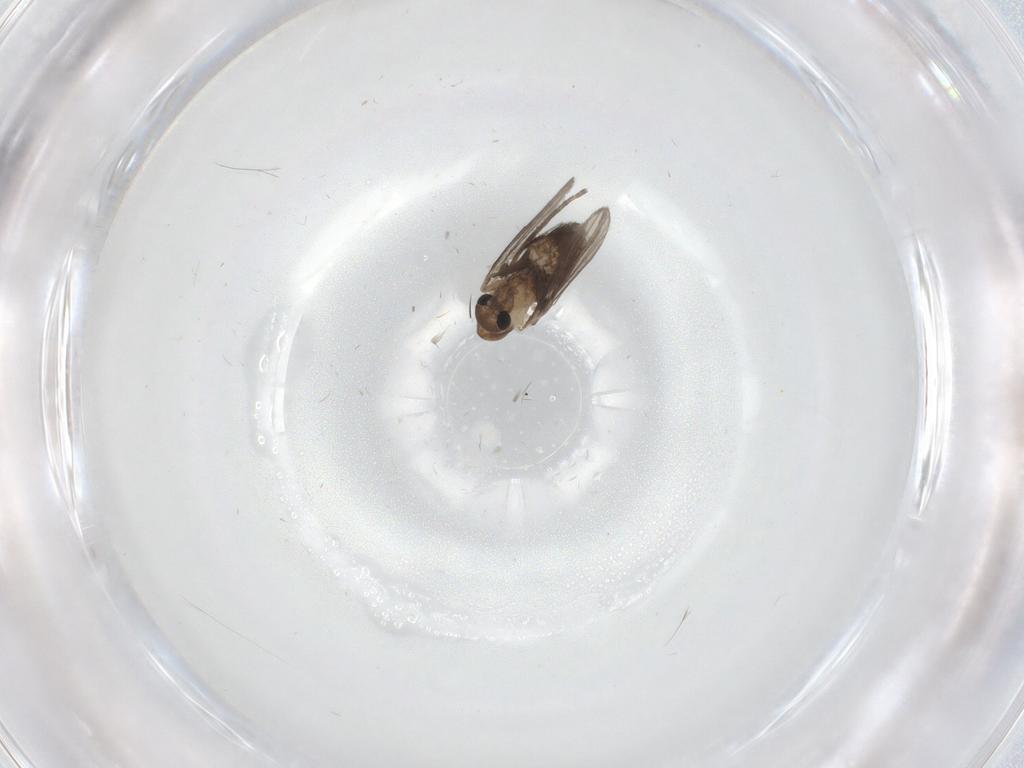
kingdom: Animalia
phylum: Arthropoda
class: Insecta
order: Diptera
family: Psychodidae
